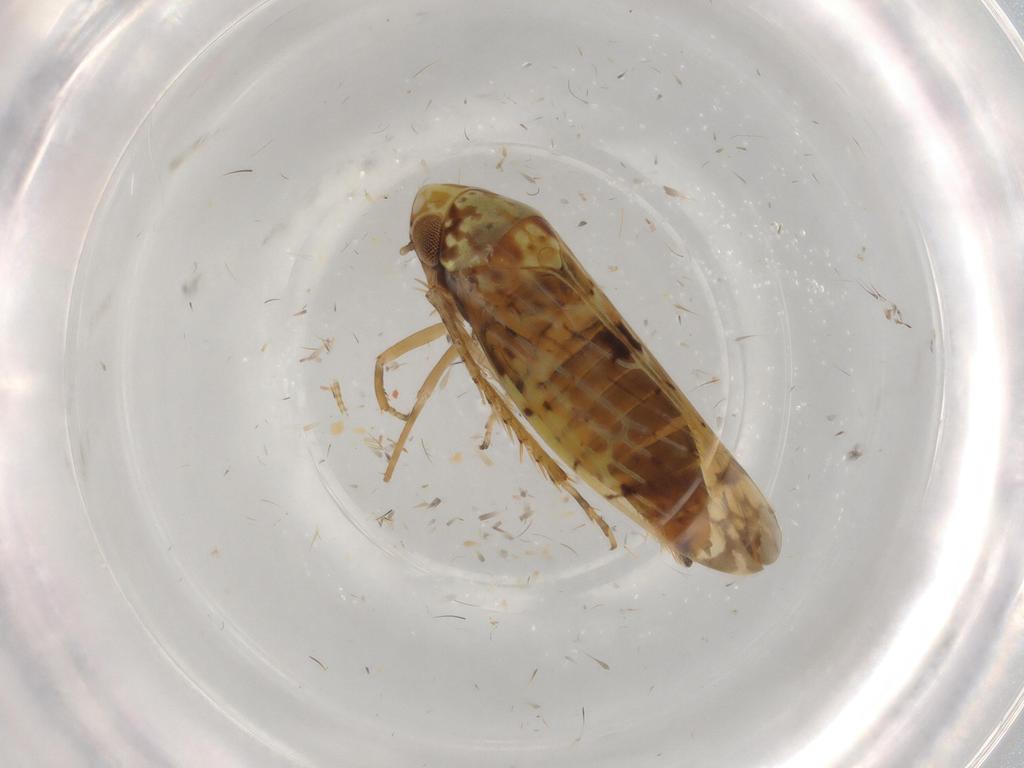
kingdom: Animalia
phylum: Arthropoda
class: Insecta
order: Hemiptera
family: Cicadellidae
